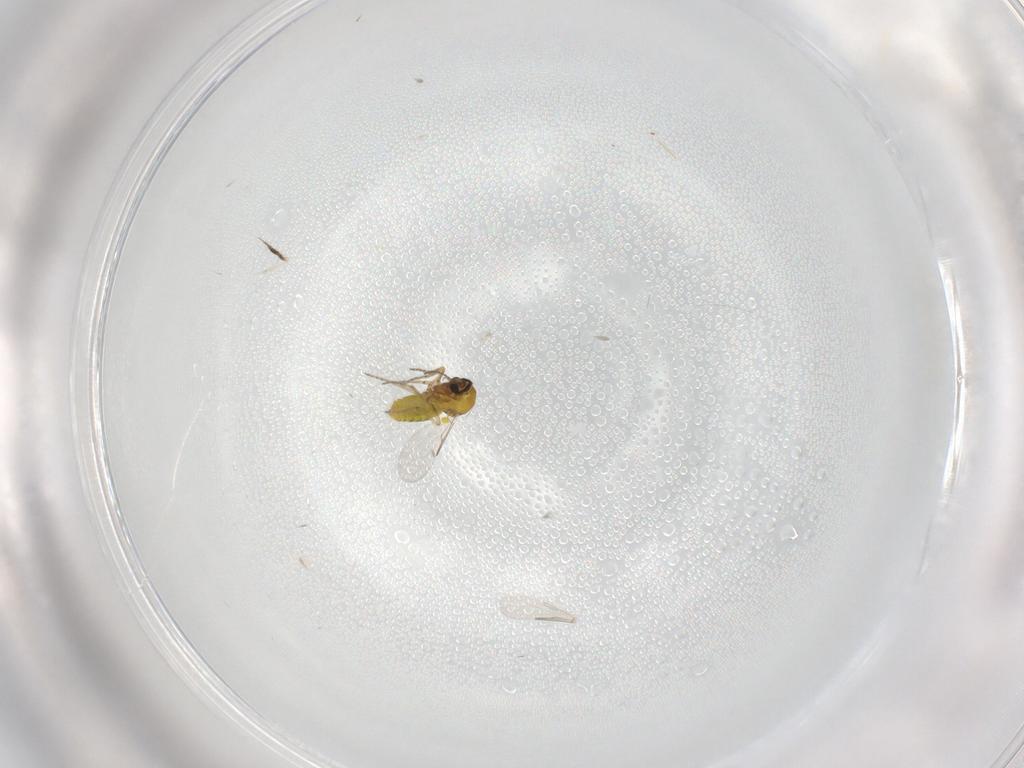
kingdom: Animalia
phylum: Arthropoda
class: Insecta
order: Diptera
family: Ceratopogonidae
